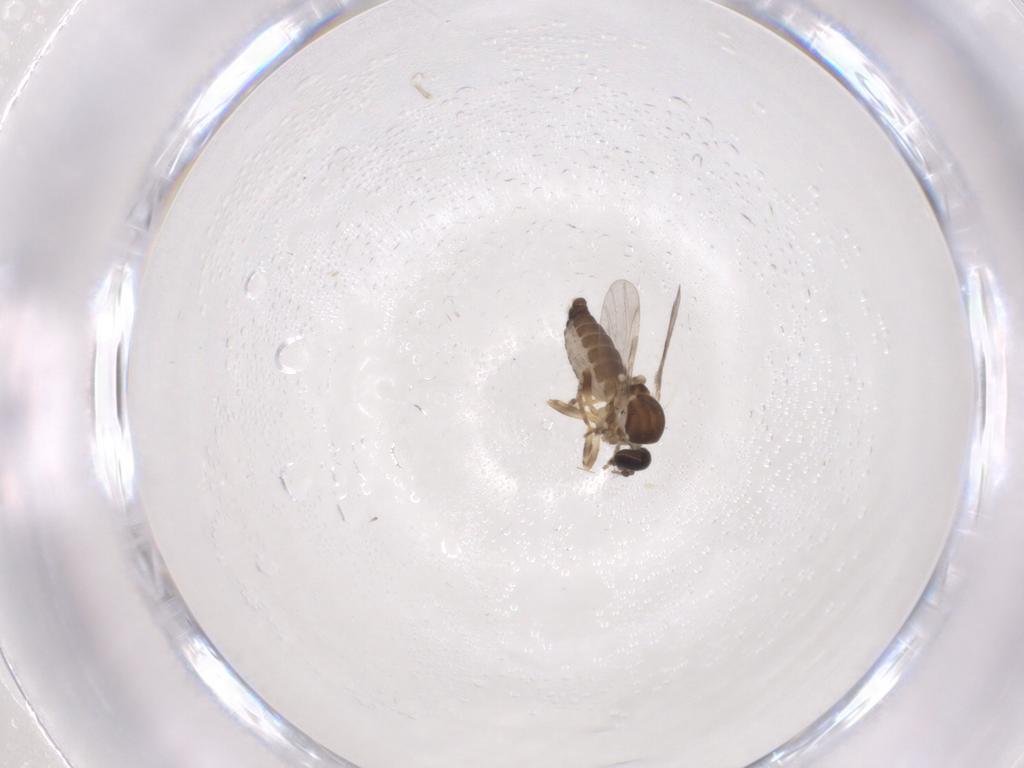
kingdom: Animalia
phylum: Arthropoda
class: Insecta
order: Diptera
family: Ceratopogonidae
